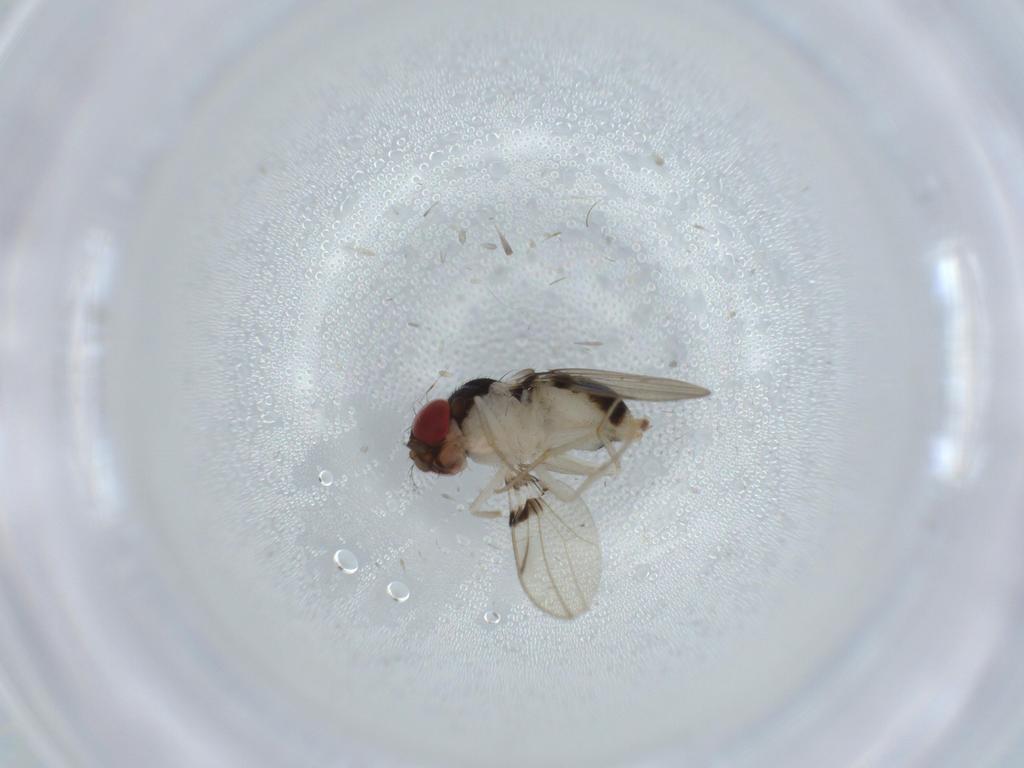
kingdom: Animalia
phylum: Arthropoda
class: Insecta
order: Diptera
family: Drosophilidae
